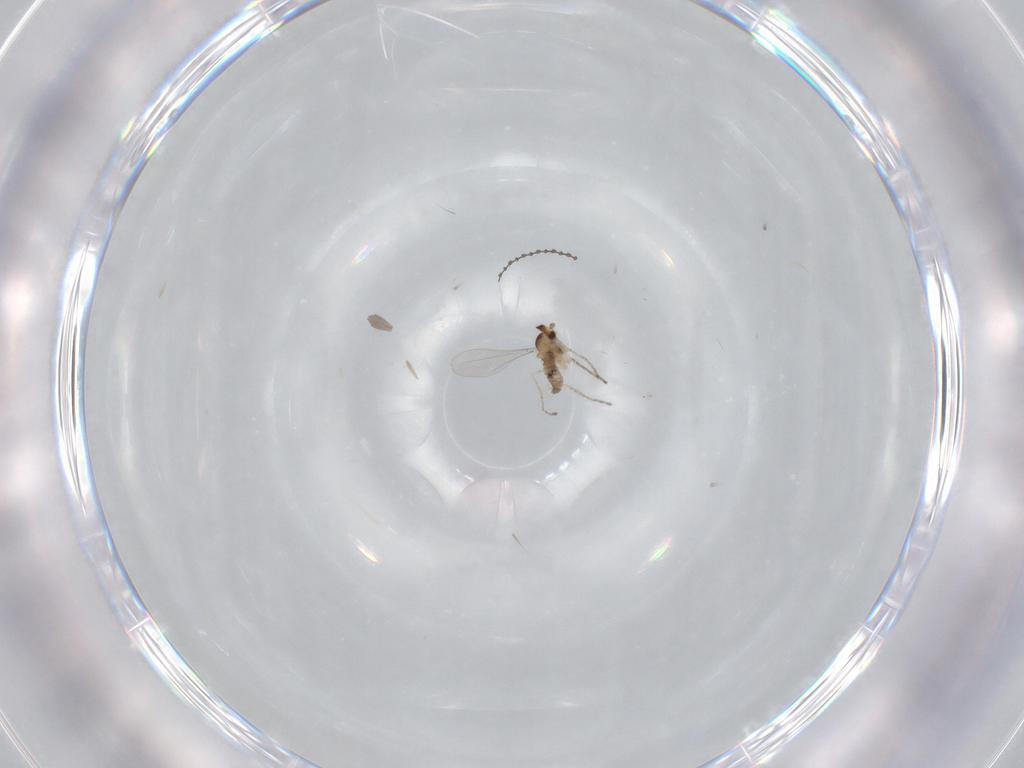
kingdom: Animalia
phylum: Arthropoda
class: Insecta
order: Diptera
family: Cecidomyiidae
